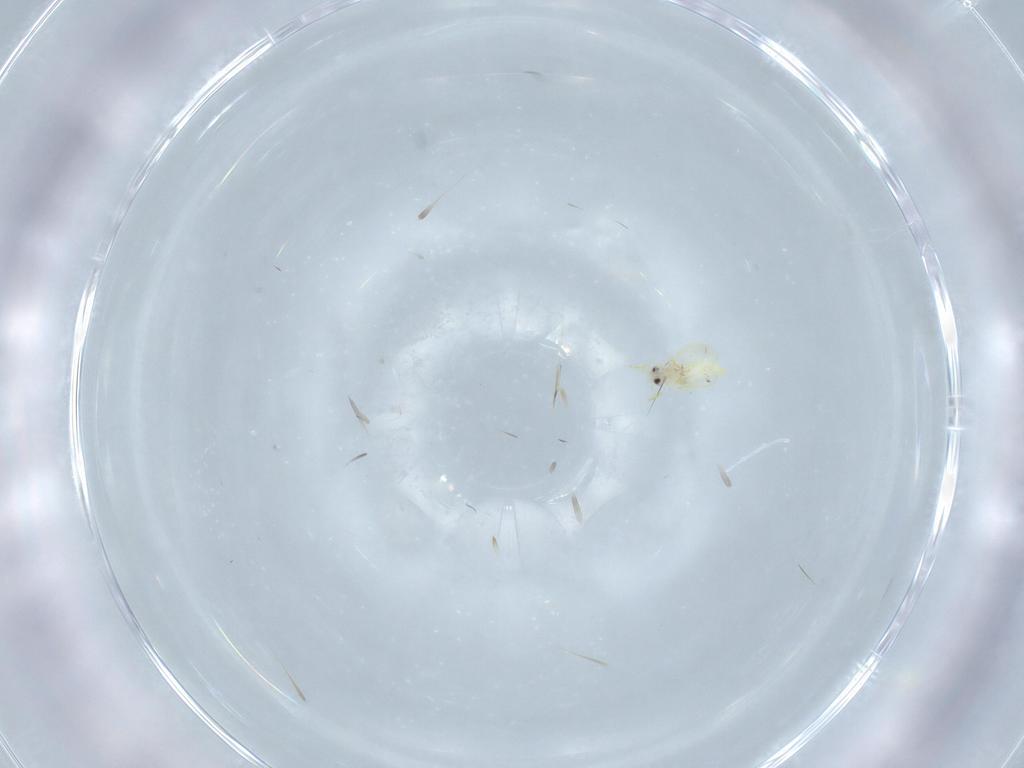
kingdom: Animalia
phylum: Arthropoda
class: Insecta
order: Hemiptera
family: Aleyrodidae
